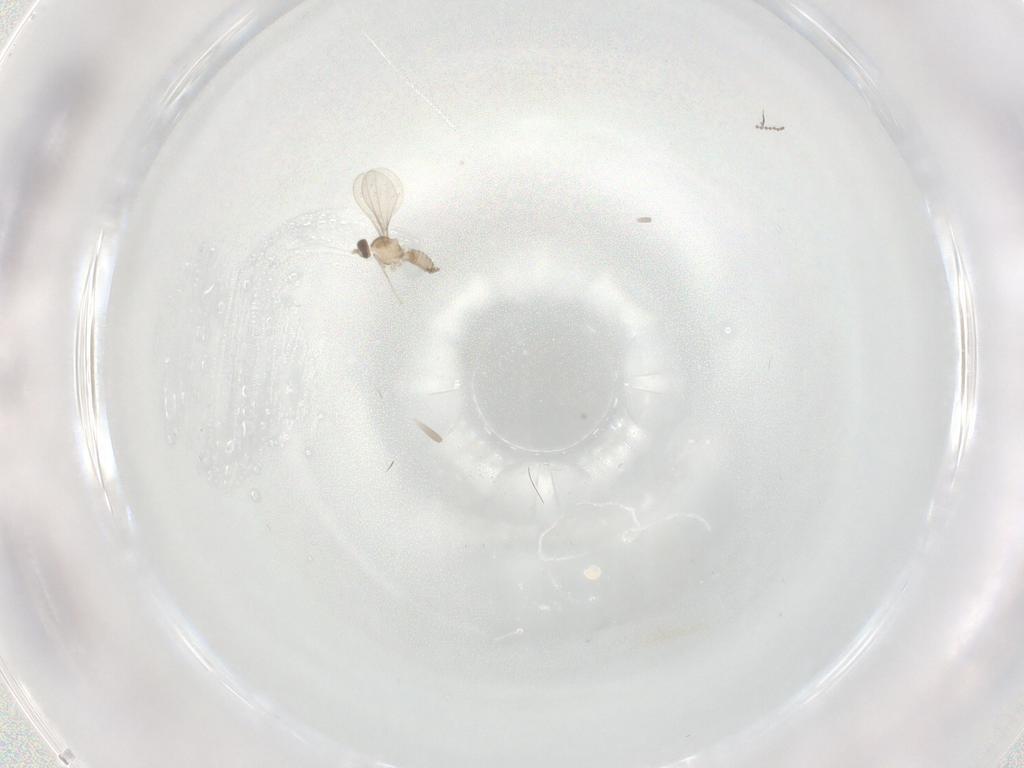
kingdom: Animalia
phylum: Arthropoda
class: Insecta
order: Diptera
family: Cecidomyiidae
